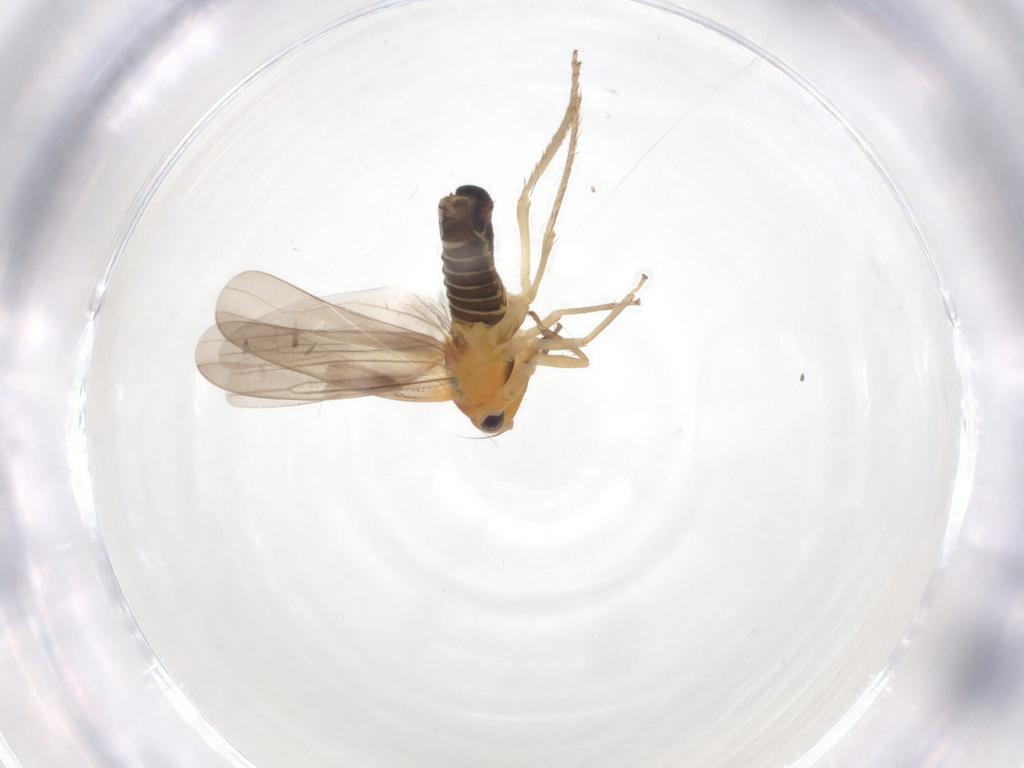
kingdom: Animalia
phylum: Arthropoda
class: Insecta
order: Hemiptera
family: Cicadellidae
